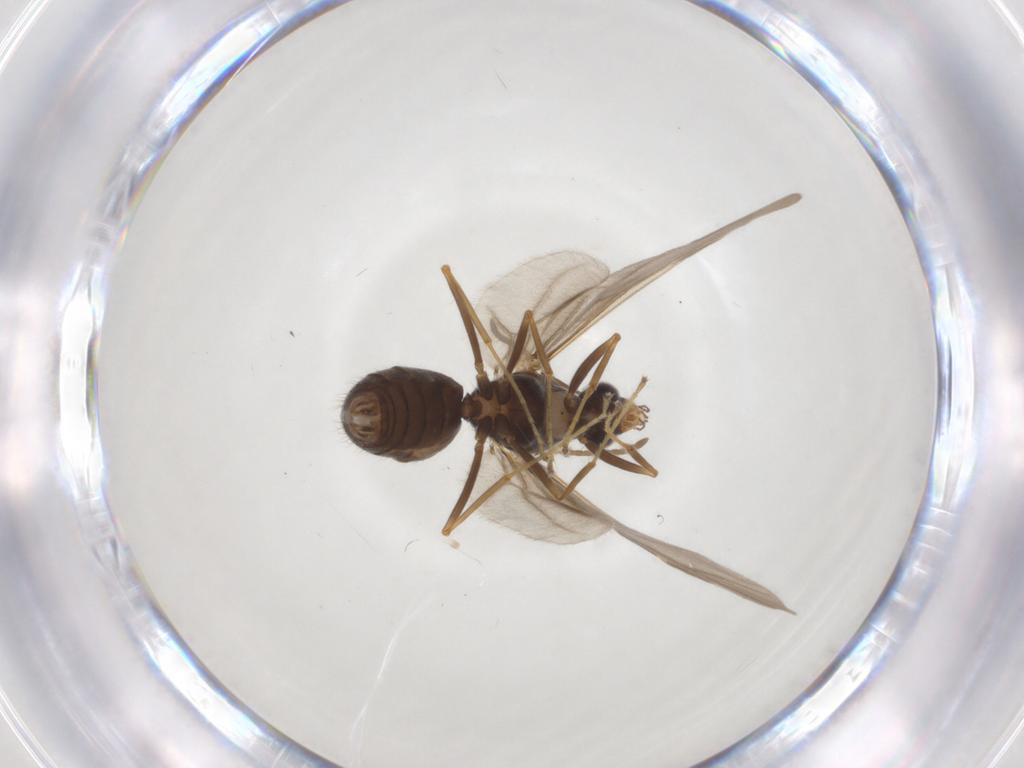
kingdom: Animalia
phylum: Arthropoda
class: Insecta
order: Hymenoptera
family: Formicidae
